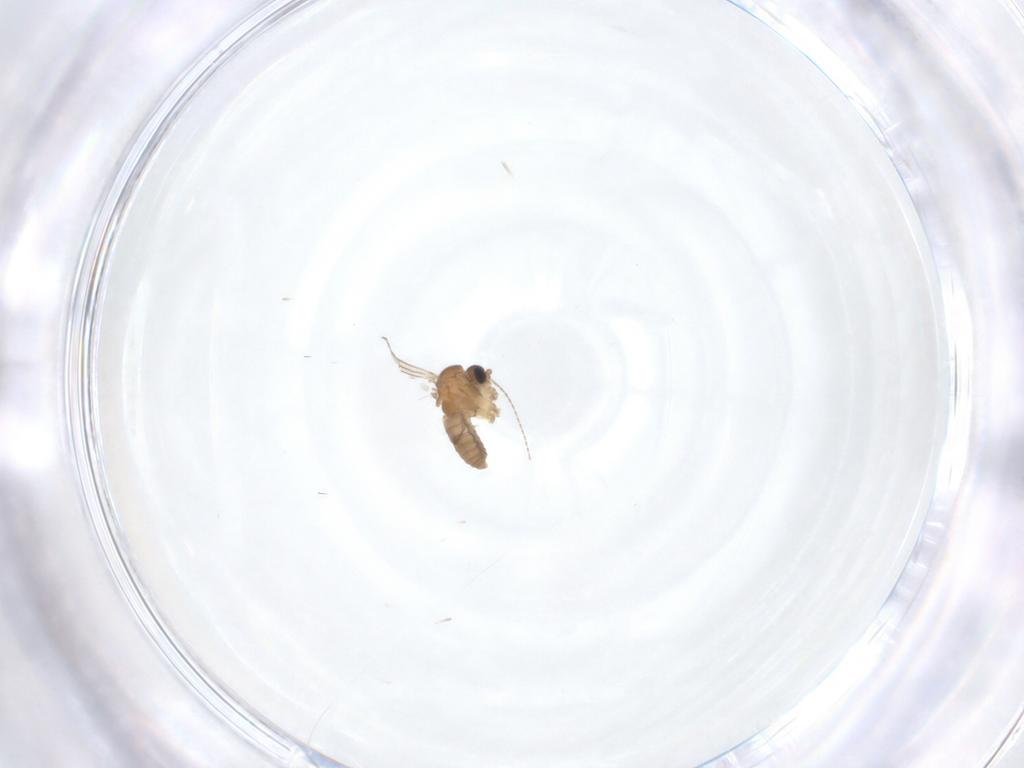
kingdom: Animalia
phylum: Arthropoda
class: Insecta
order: Diptera
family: Psychodidae
